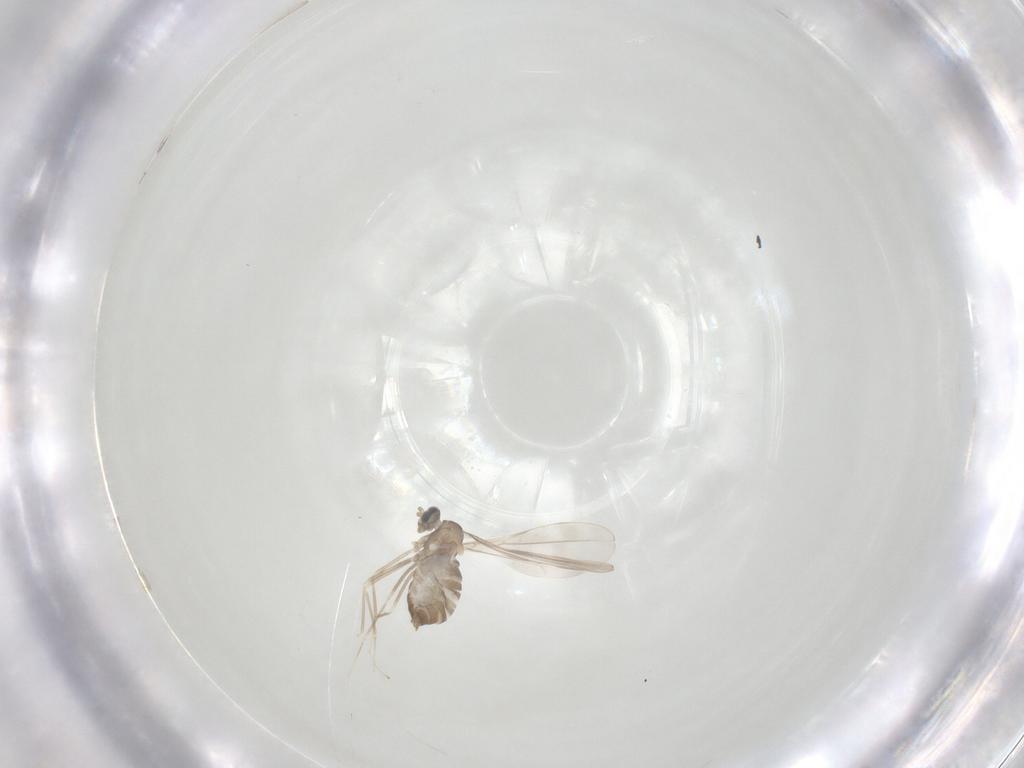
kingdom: Animalia
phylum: Arthropoda
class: Insecta
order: Diptera
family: Cecidomyiidae
